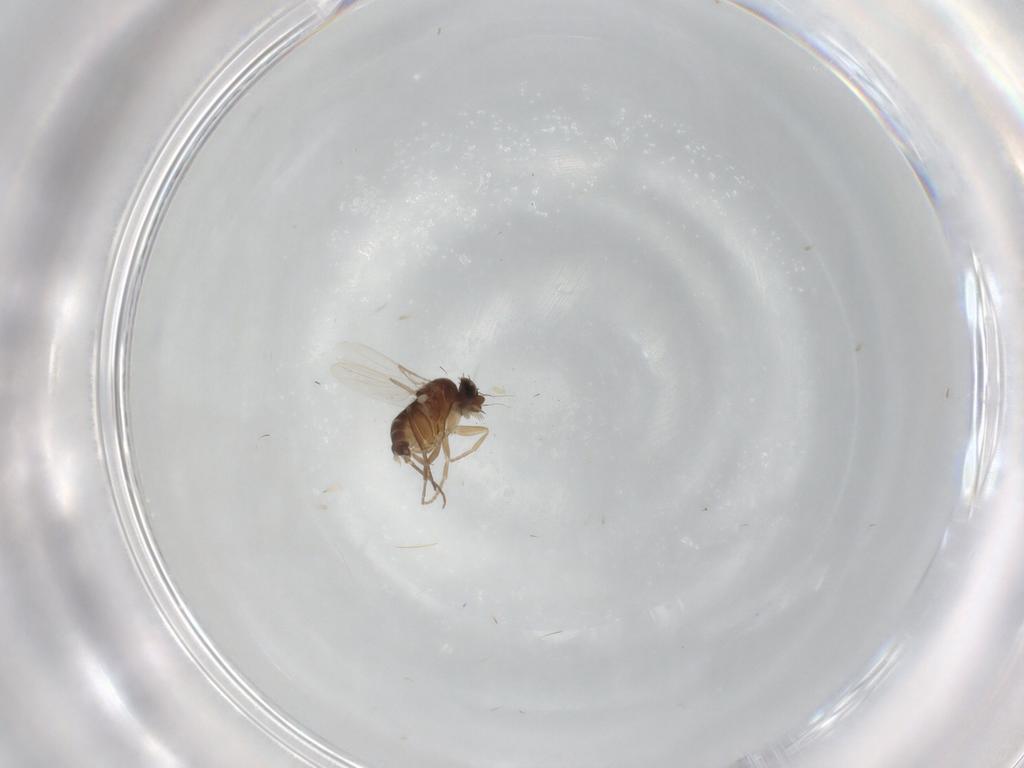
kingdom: Animalia
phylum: Arthropoda
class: Insecta
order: Diptera
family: Phoridae
